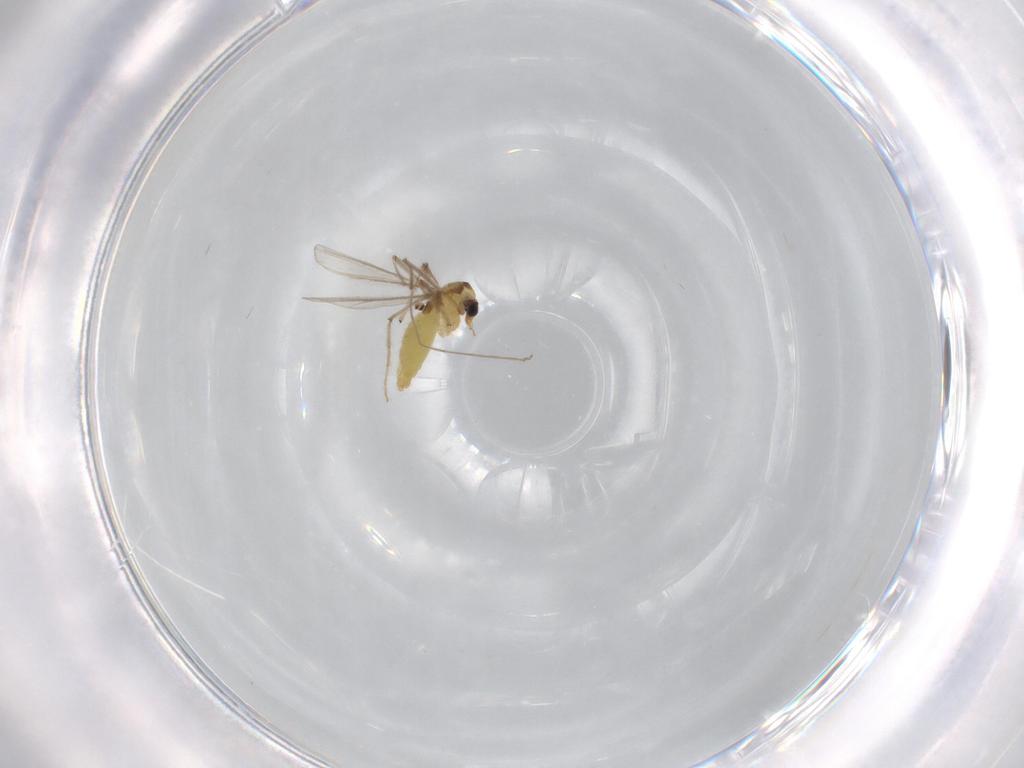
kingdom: Animalia
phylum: Arthropoda
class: Insecta
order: Diptera
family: Chironomidae
